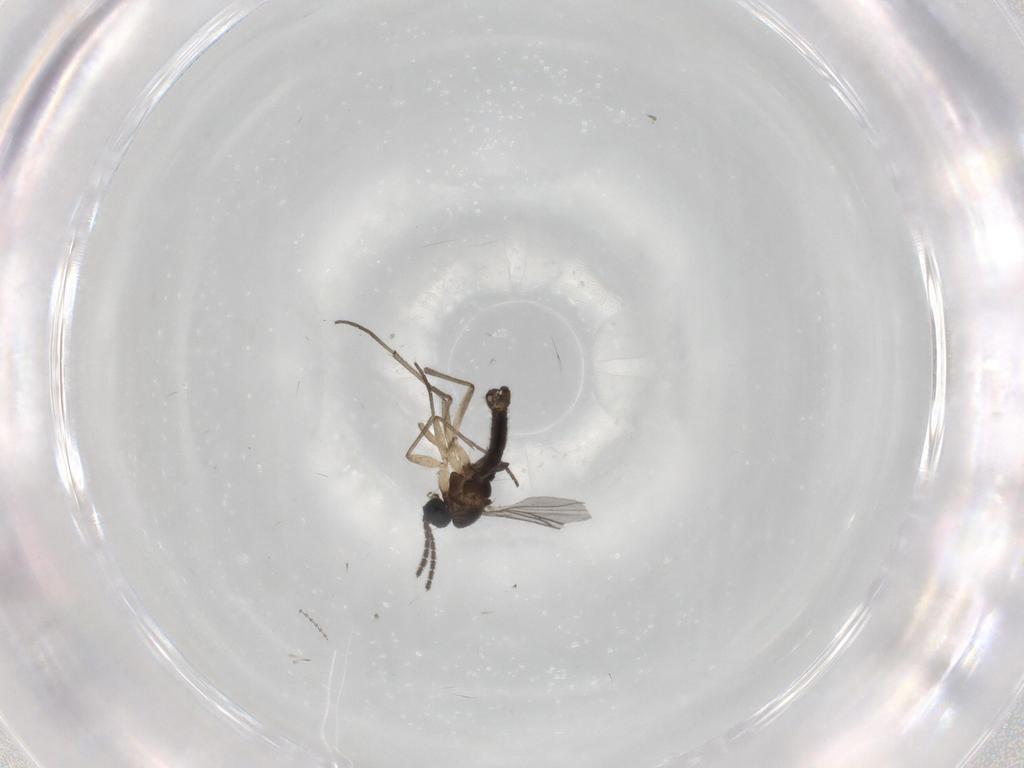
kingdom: Animalia
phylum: Arthropoda
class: Insecta
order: Diptera
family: Sciaridae
